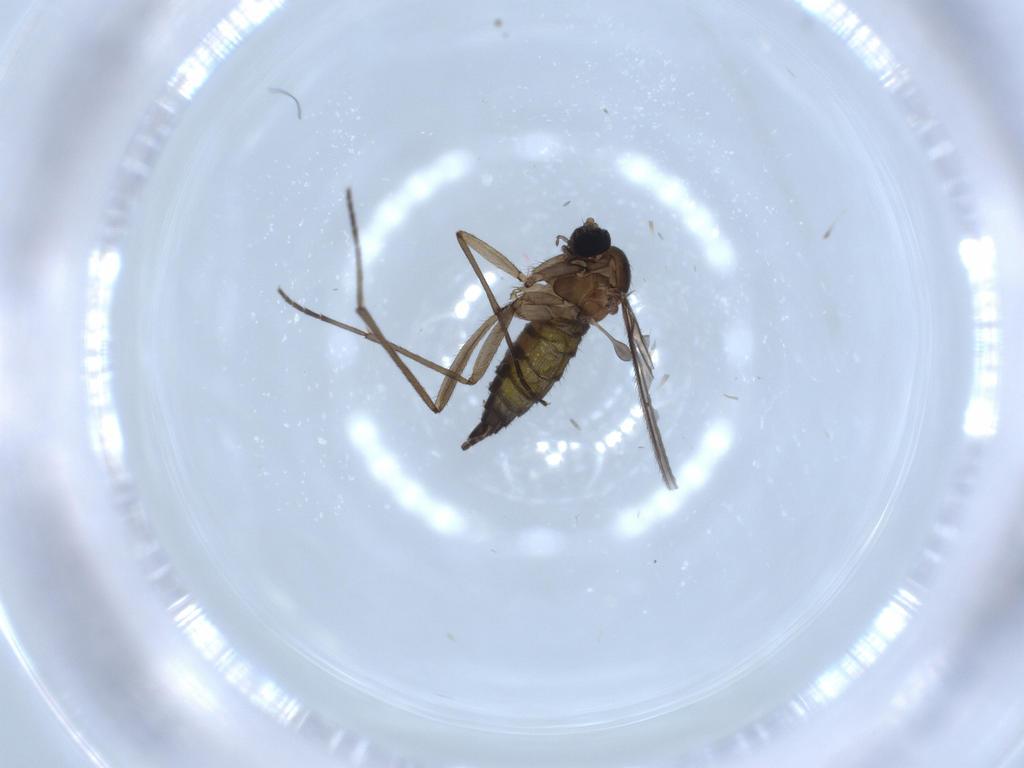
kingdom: Animalia
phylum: Arthropoda
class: Insecta
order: Diptera
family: Sciaridae
